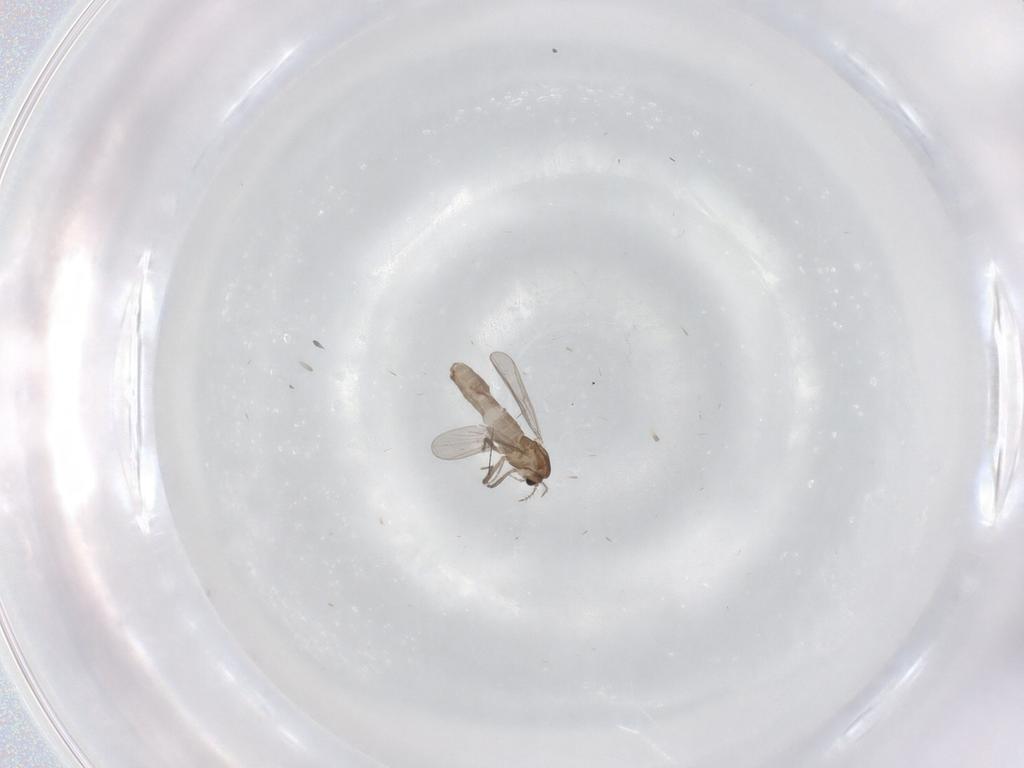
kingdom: Animalia
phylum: Arthropoda
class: Insecta
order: Diptera
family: Chironomidae
